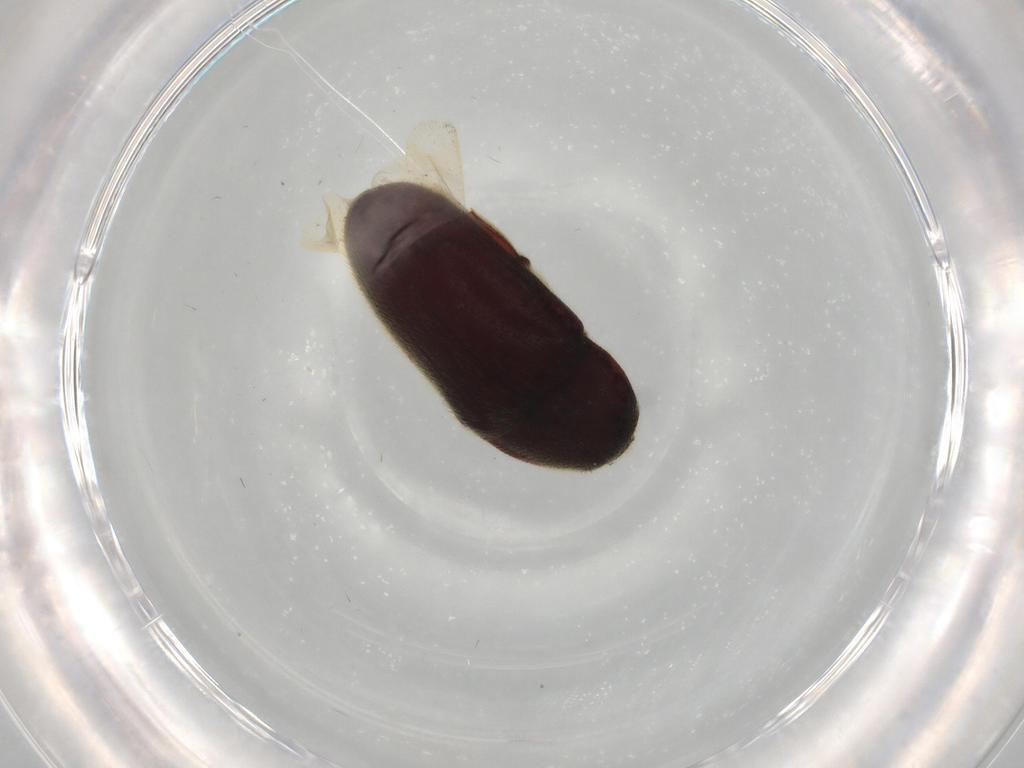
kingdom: Animalia
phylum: Arthropoda
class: Insecta
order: Coleoptera
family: Throscidae
